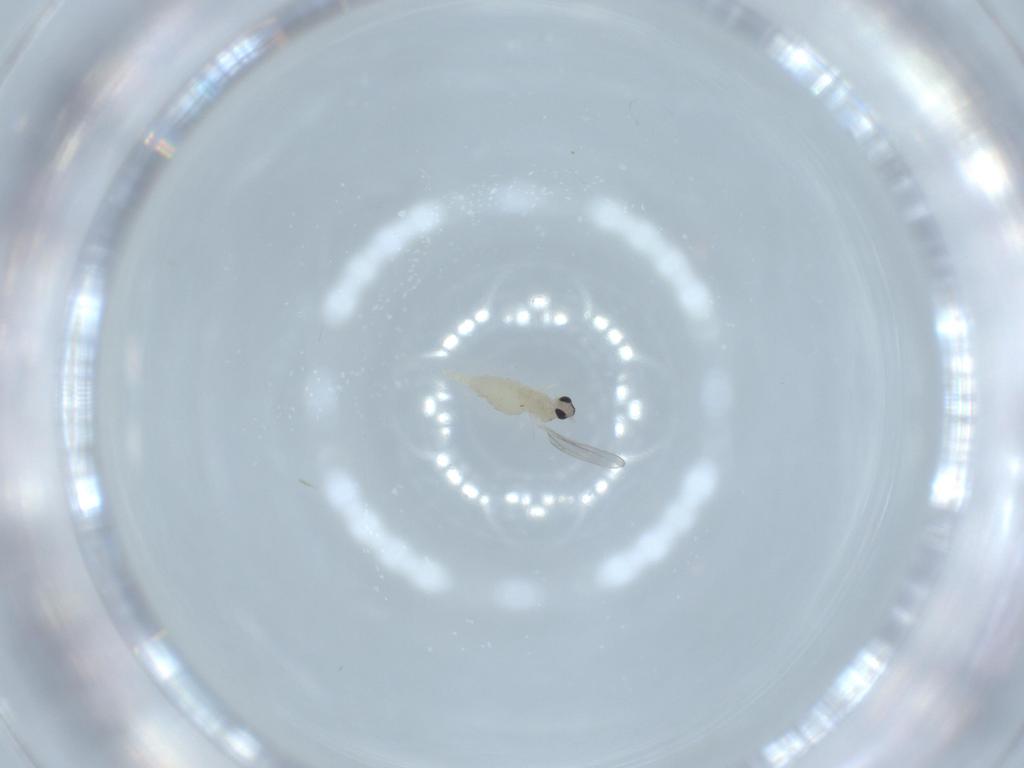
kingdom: Animalia
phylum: Arthropoda
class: Insecta
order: Diptera
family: Cecidomyiidae
